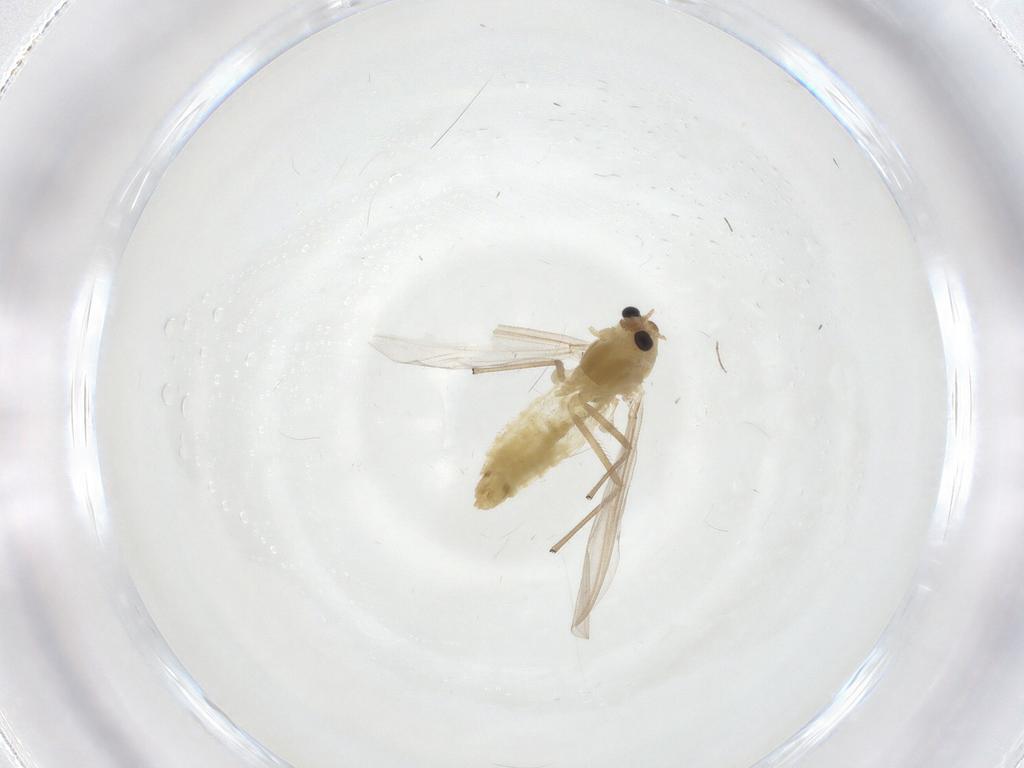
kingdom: Animalia
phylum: Arthropoda
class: Insecta
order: Diptera
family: Chironomidae
